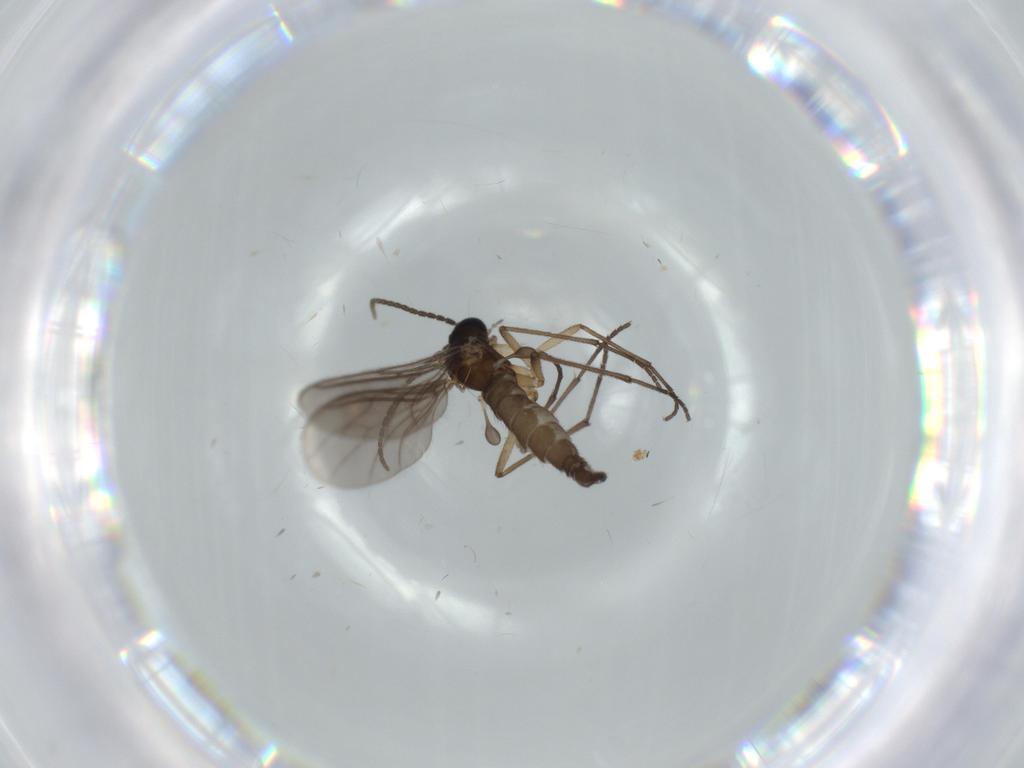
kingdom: Animalia
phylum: Arthropoda
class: Insecta
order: Diptera
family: Sciaridae
